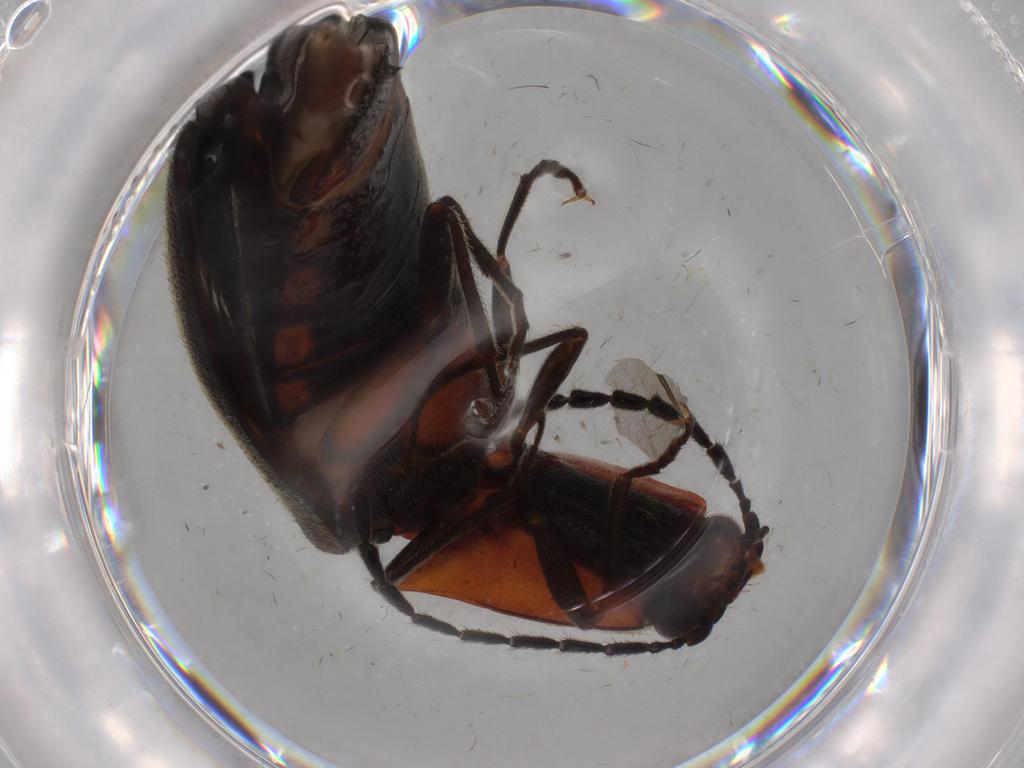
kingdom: Animalia
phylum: Arthropoda
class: Insecta
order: Coleoptera
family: Elateridae
